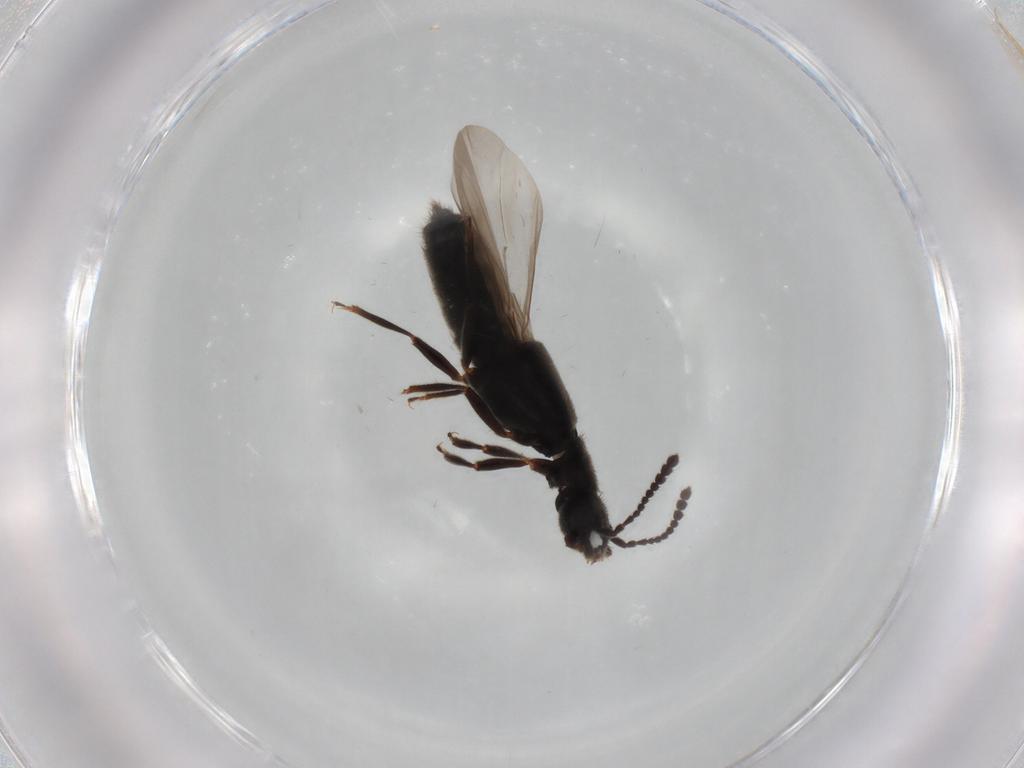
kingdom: Animalia
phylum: Arthropoda
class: Insecta
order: Coleoptera
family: Staphylinidae
